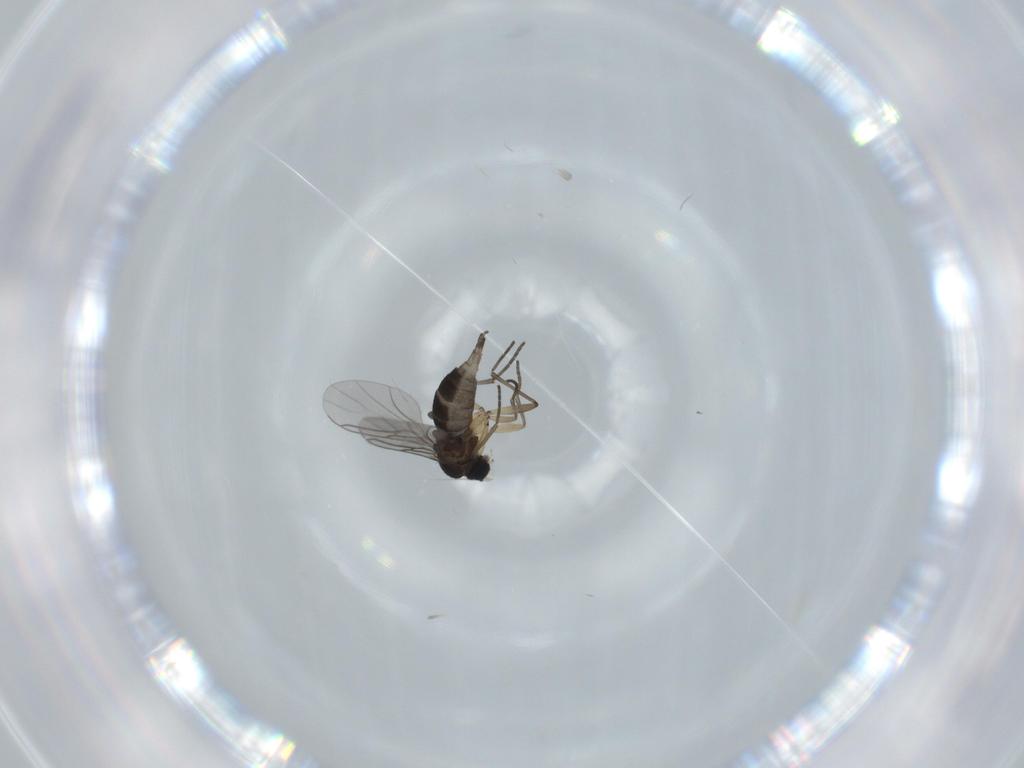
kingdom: Animalia
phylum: Arthropoda
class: Insecta
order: Diptera
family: Sciaridae
